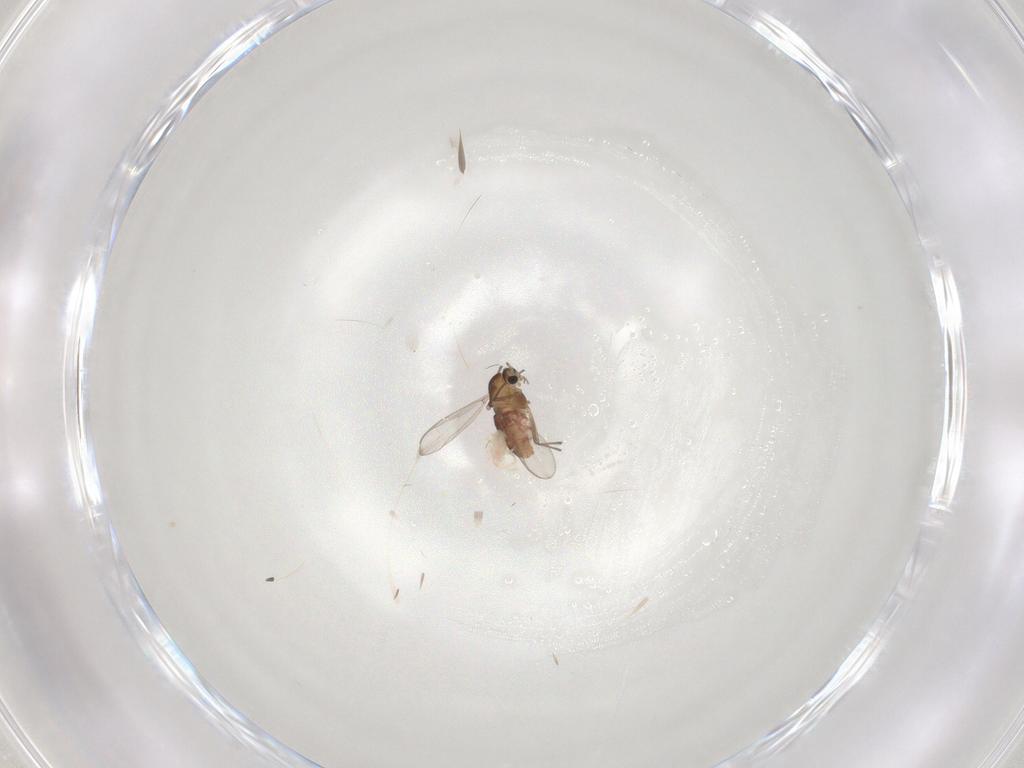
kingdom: Animalia
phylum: Arthropoda
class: Insecta
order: Diptera
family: Chironomidae
